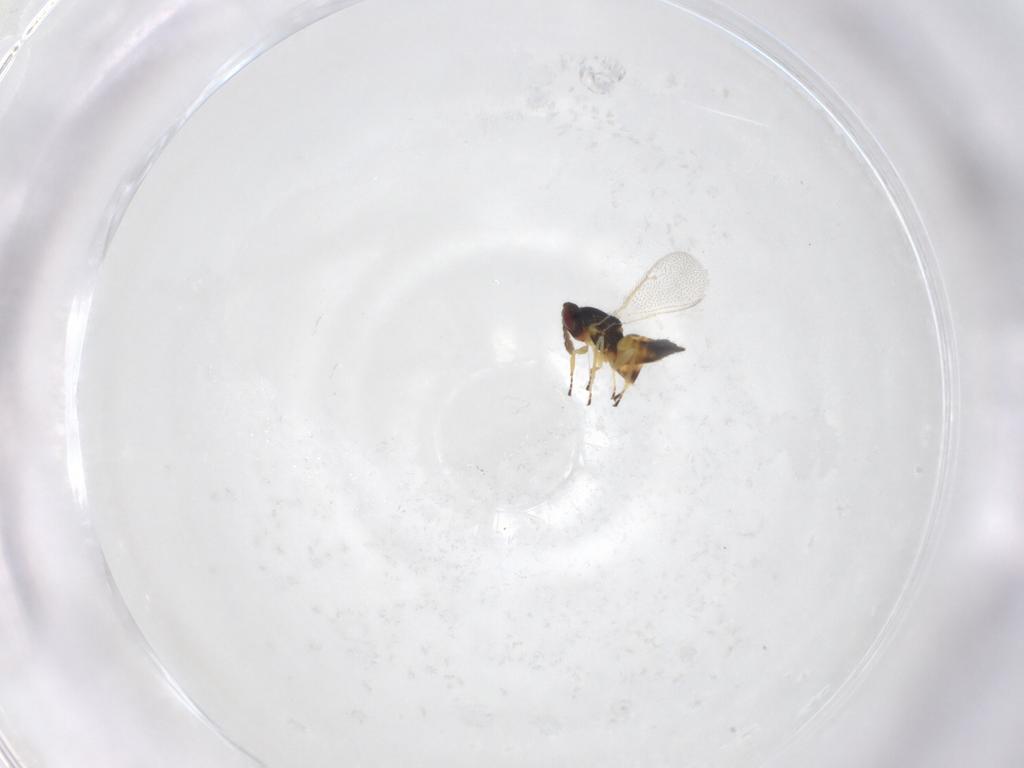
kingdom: Animalia
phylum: Arthropoda
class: Insecta
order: Hymenoptera
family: Eulophidae
